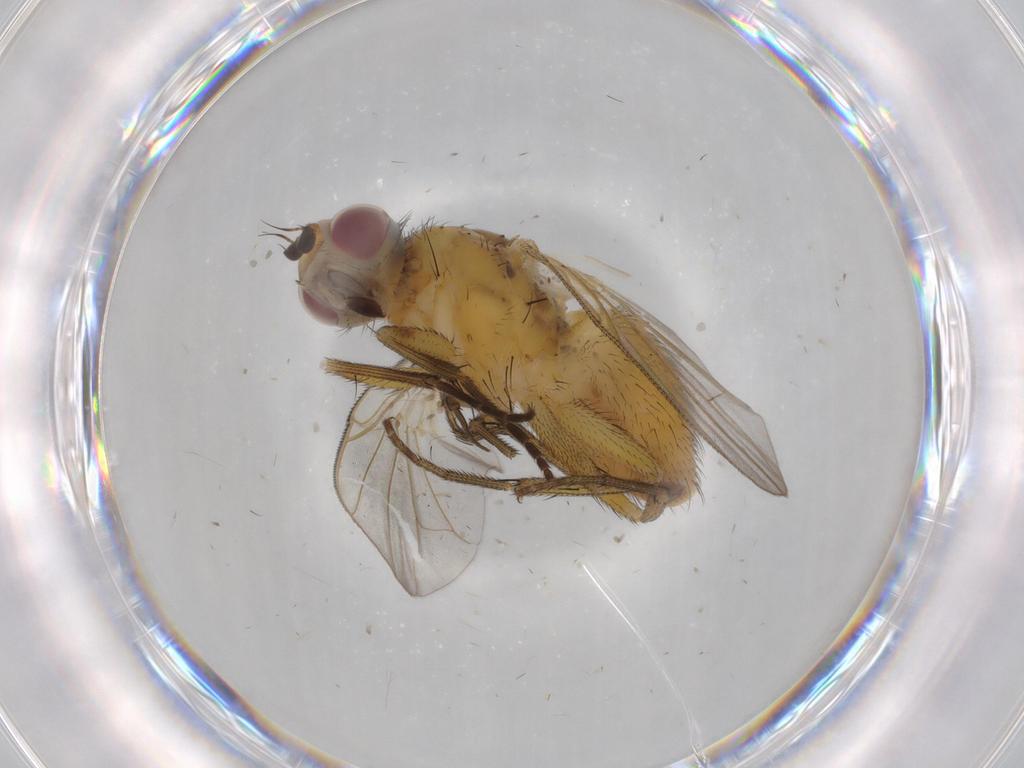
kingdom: Animalia
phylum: Arthropoda
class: Insecta
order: Diptera
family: Muscidae
